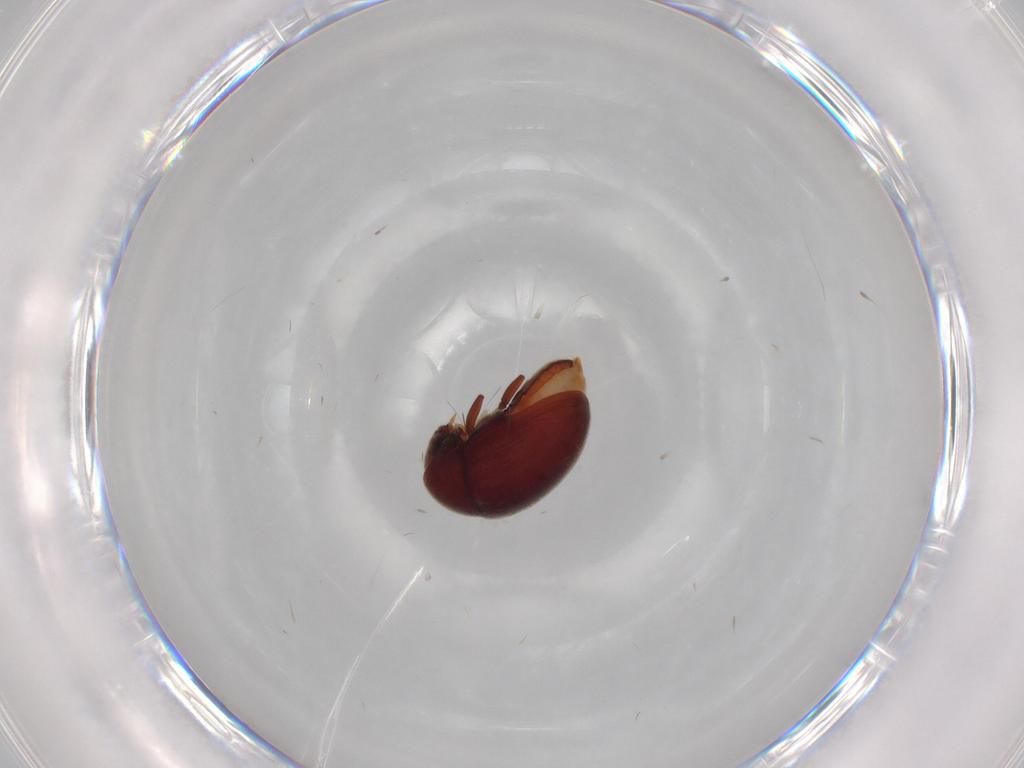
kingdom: Animalia
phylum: Arthropoda
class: Insecta
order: Coleoptera
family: Ptinidae
